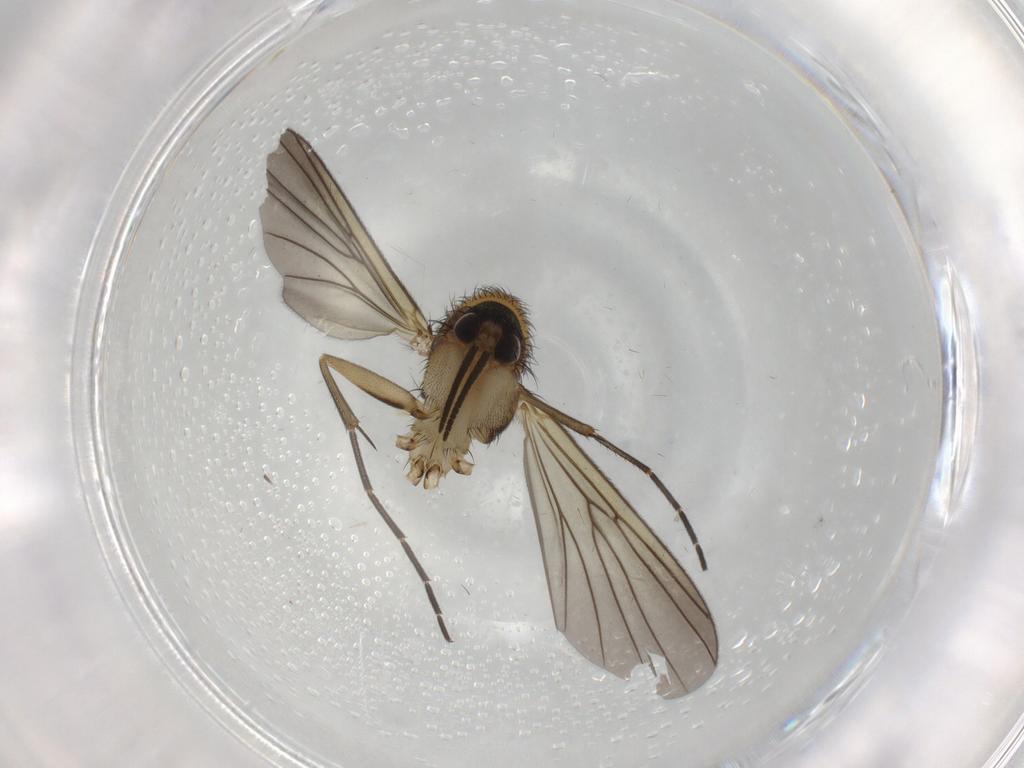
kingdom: Animalia
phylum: Arthropoda
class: Insecta
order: Diptera
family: Mycetophilidae
